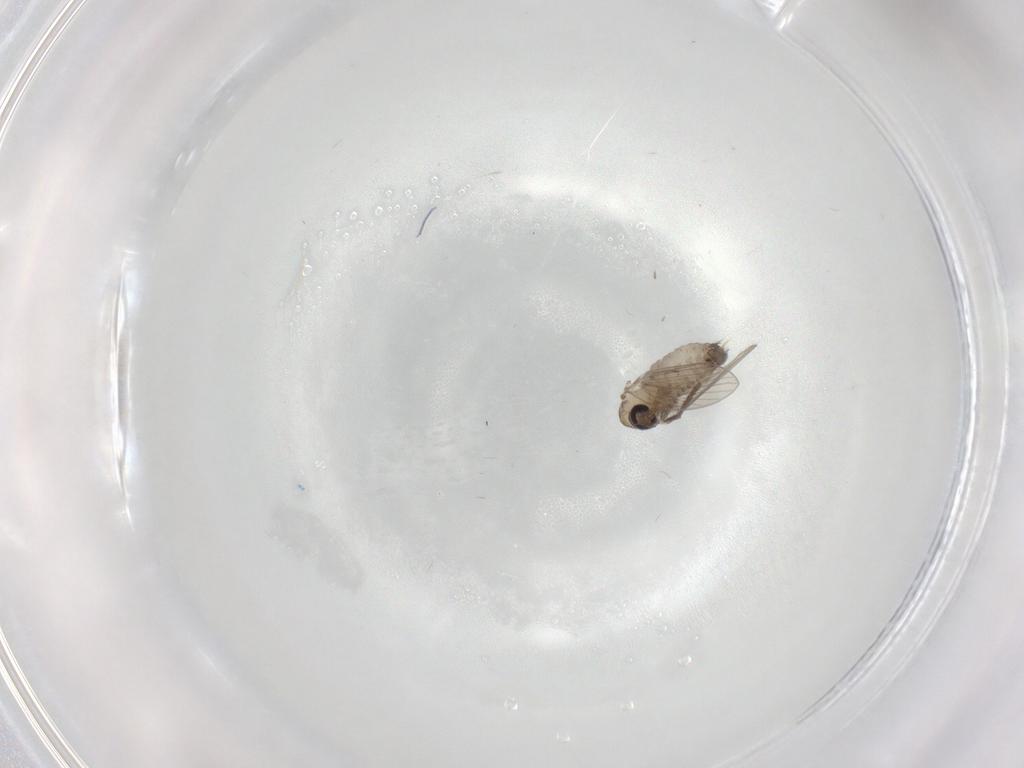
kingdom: Animalia
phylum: Arthropoda
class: Insecta
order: Diptera
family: Psychodidae
